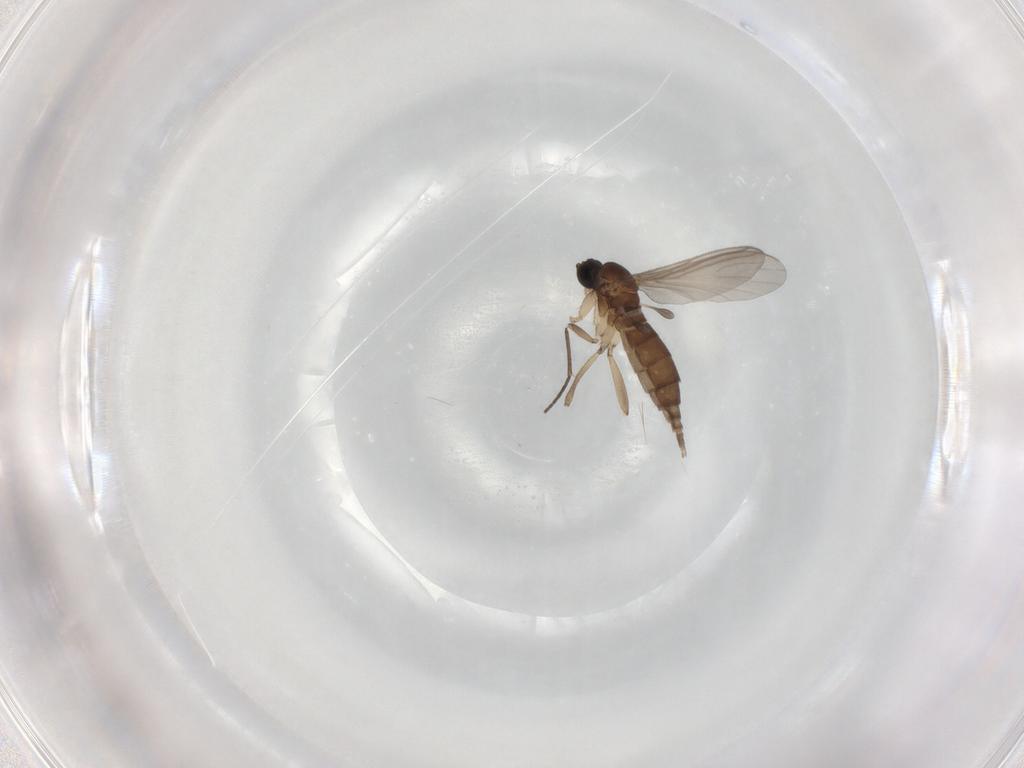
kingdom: Animalia
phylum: Arthropoda
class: Insecta
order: Diptera
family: Sciaridae
